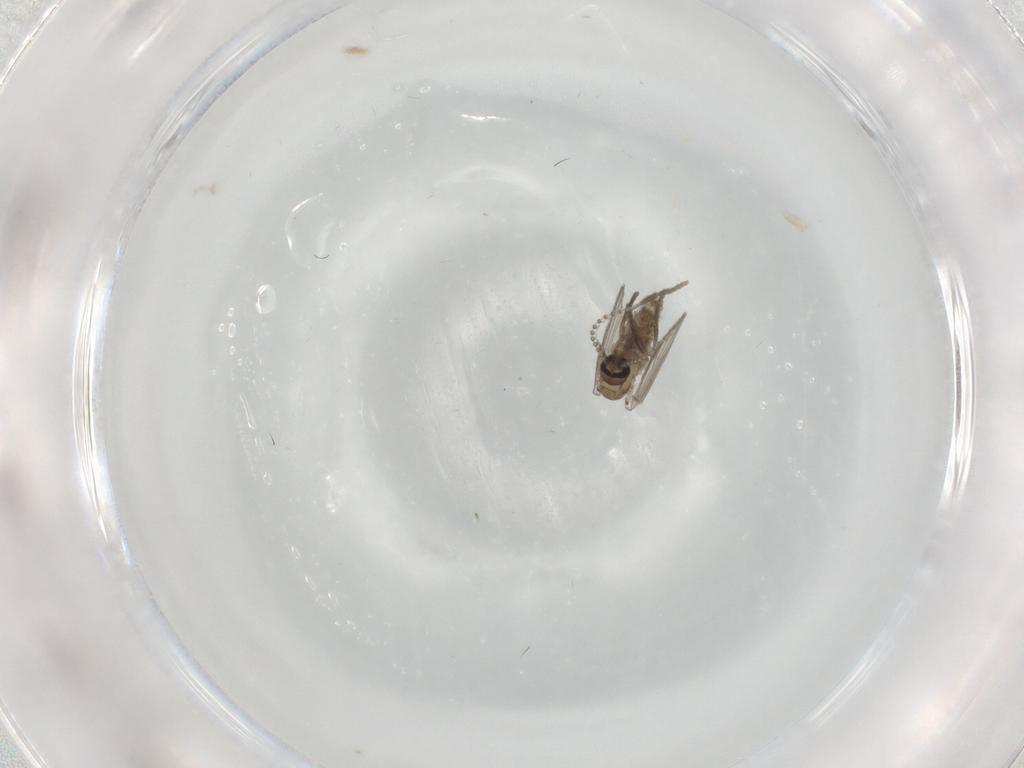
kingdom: Animalia
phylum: Arthropoda
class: Insecta
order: Diptera
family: Psychodidae
